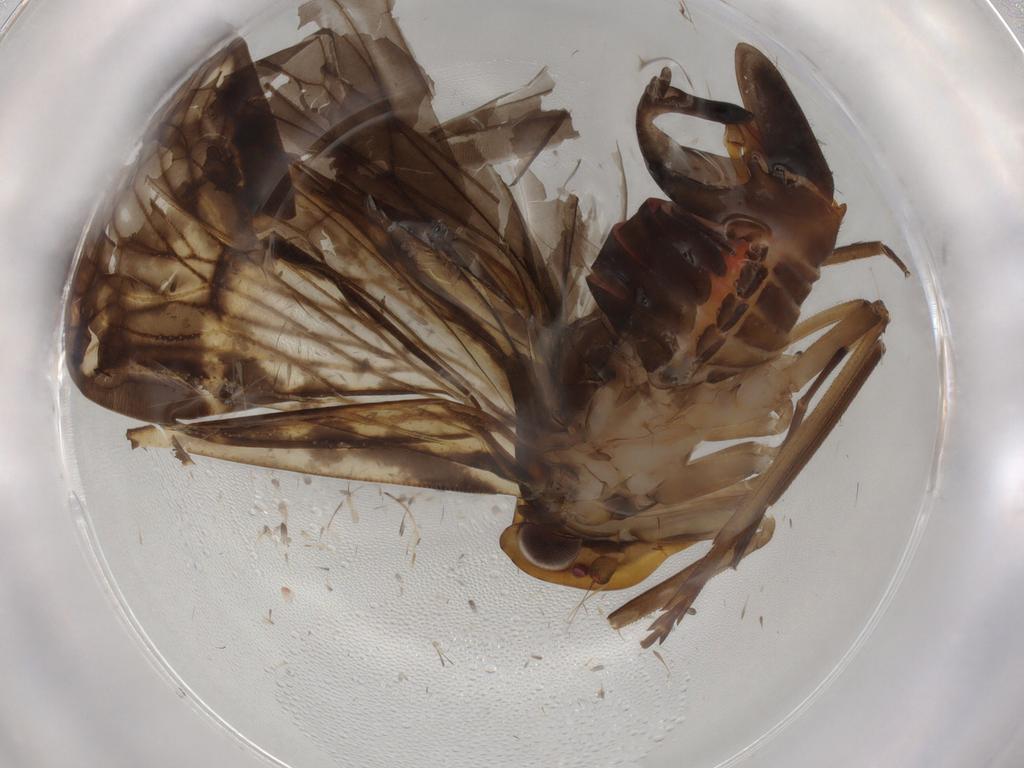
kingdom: Animalia
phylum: Arthropoda
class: Insecta
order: Hemiptera
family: Cixiidae
